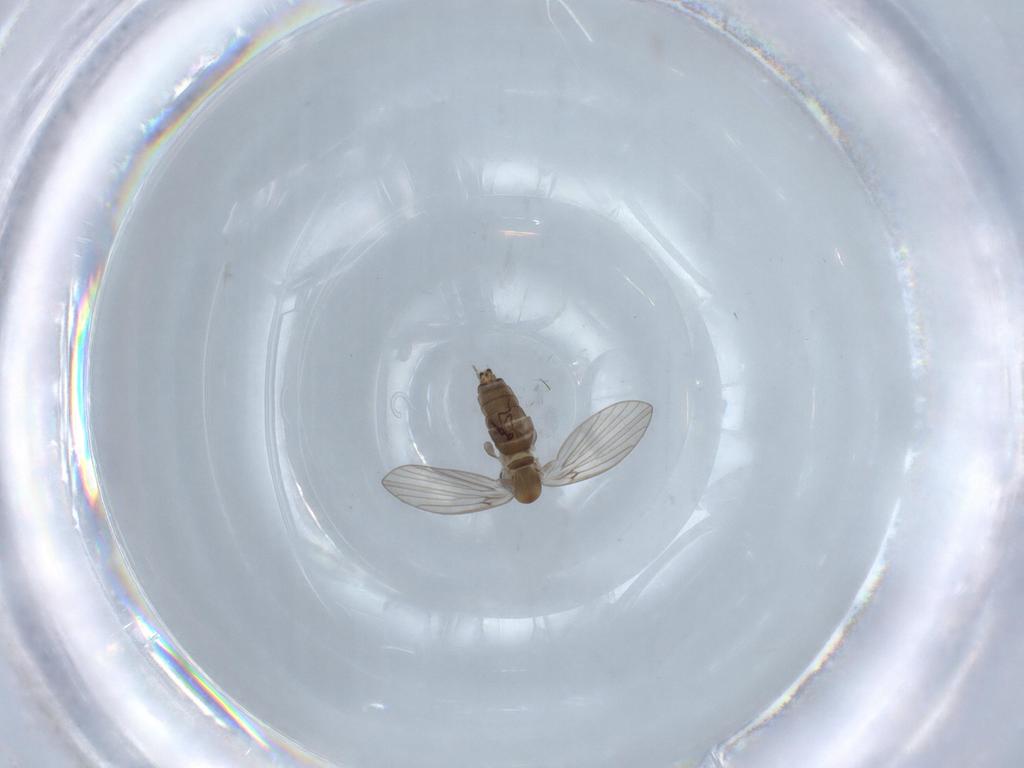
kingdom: Animalia
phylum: Arthropoda
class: Insecta
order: Diptera
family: Psychodidae
